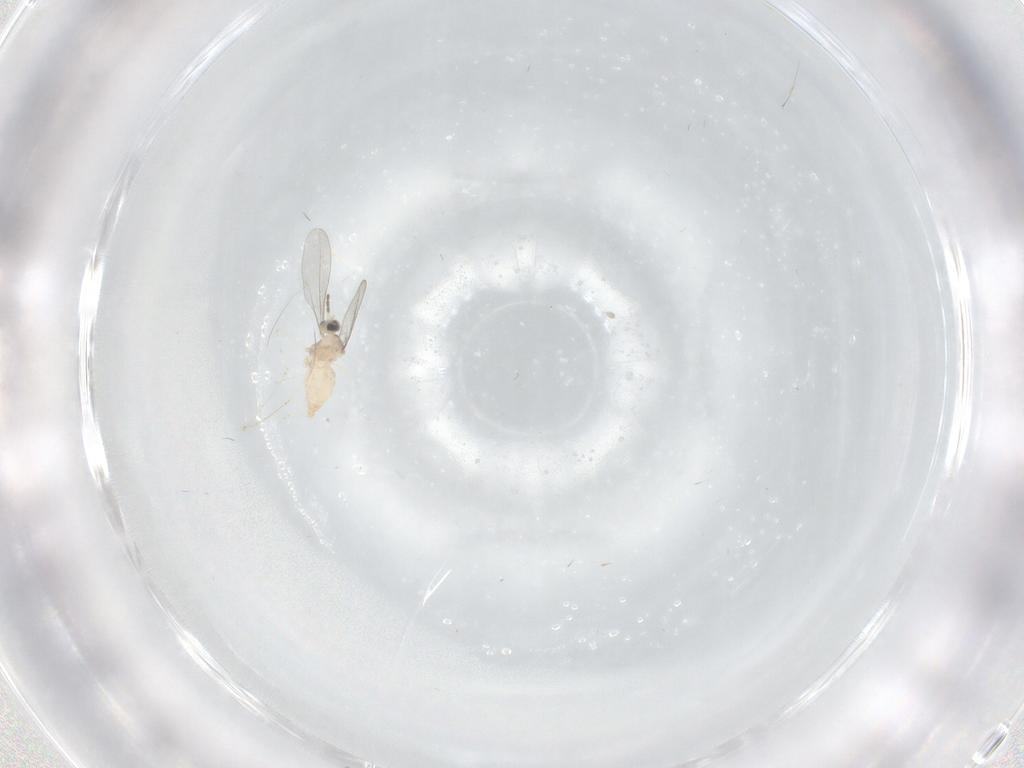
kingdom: Animalia
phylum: Arthropoda
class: Insecta
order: Diptera
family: Cecidomyiidae
